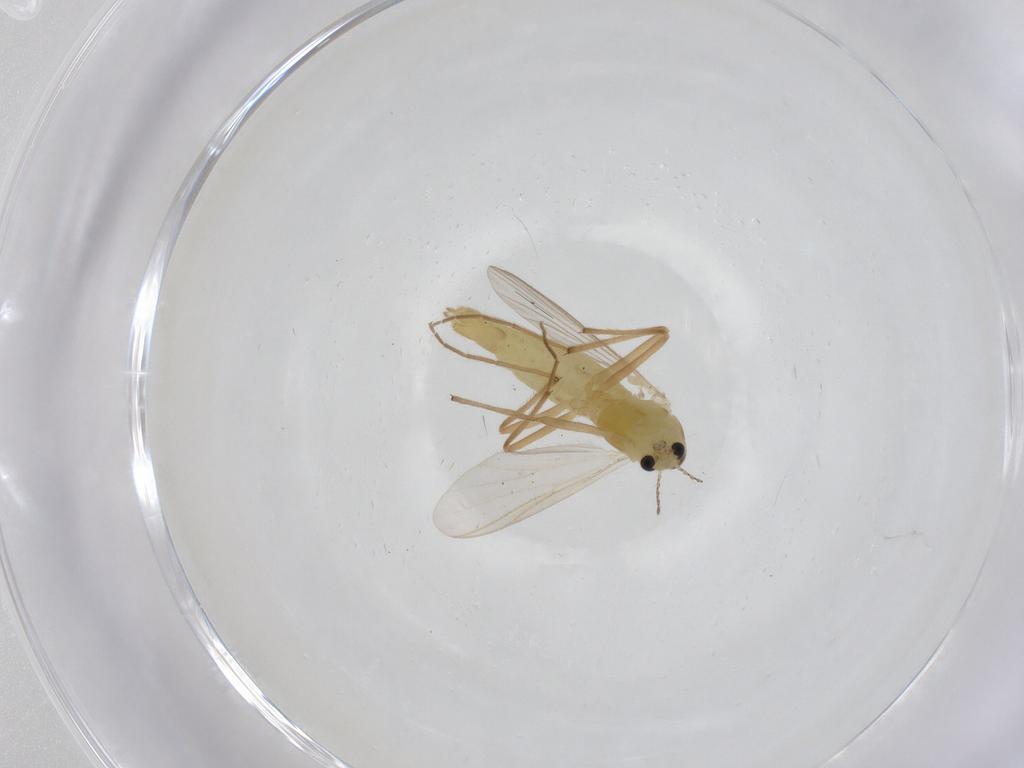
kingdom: Animalia
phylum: Arthropoda
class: Insecta
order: Diptera
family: Chironomidae
